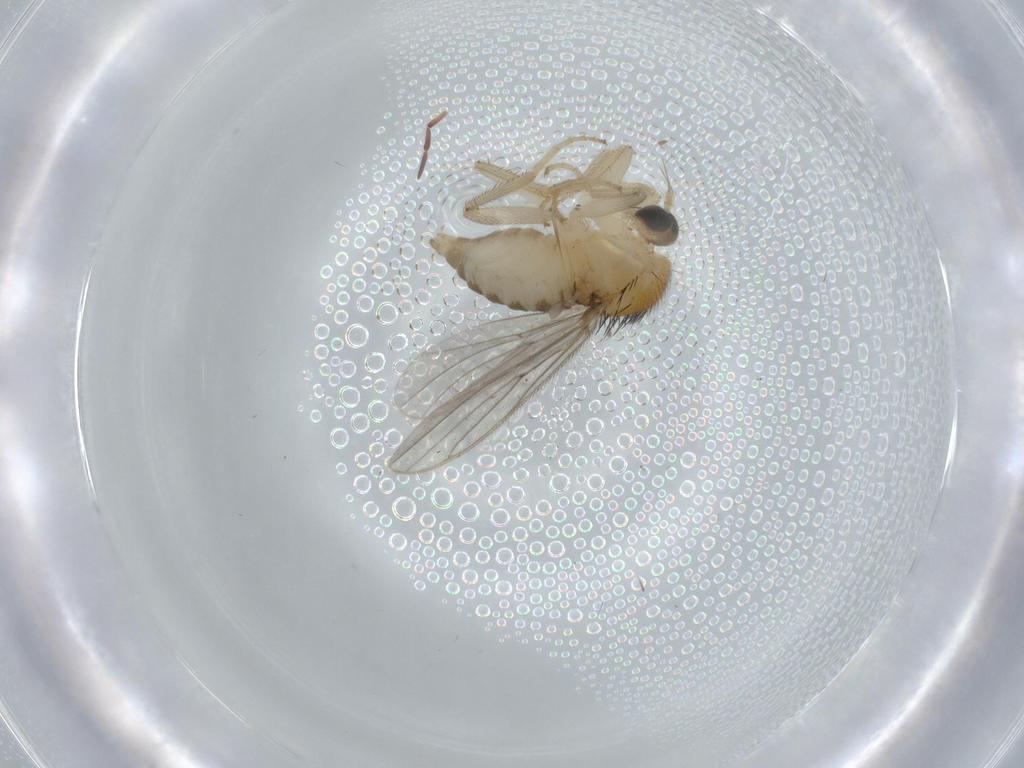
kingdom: Animalia
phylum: Arthropoda
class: Insecta
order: Diptera
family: Hybotidae
